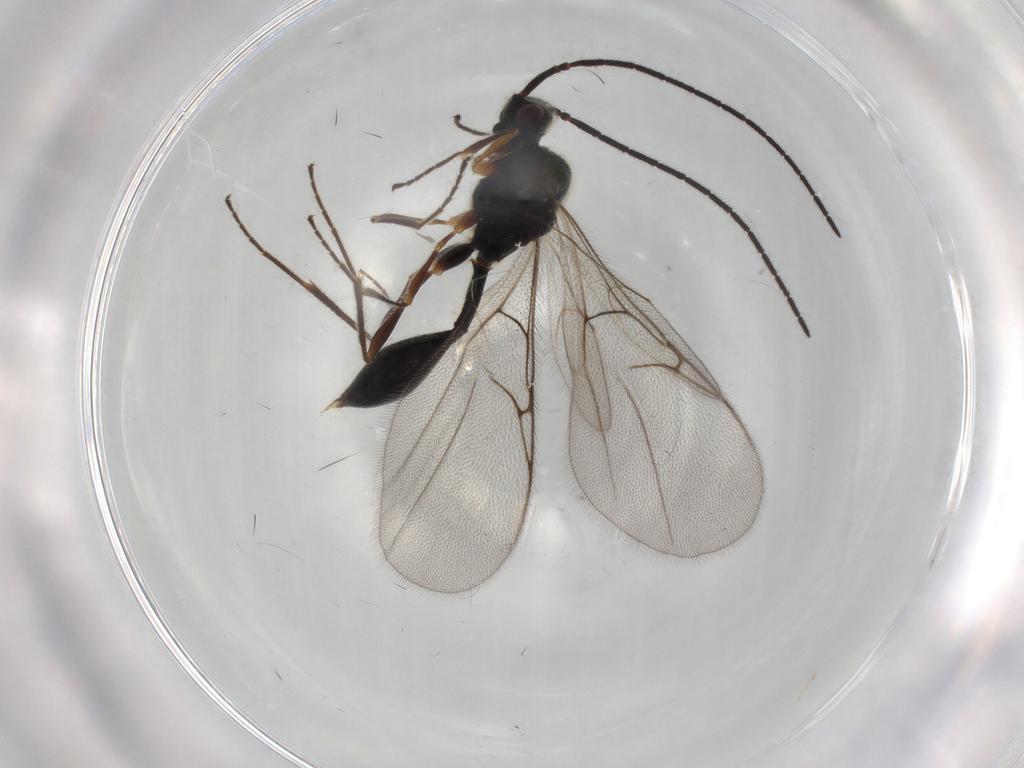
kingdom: Animalia
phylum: Arthropoda
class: Insecta
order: Hymenoptera
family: Diapriidae
